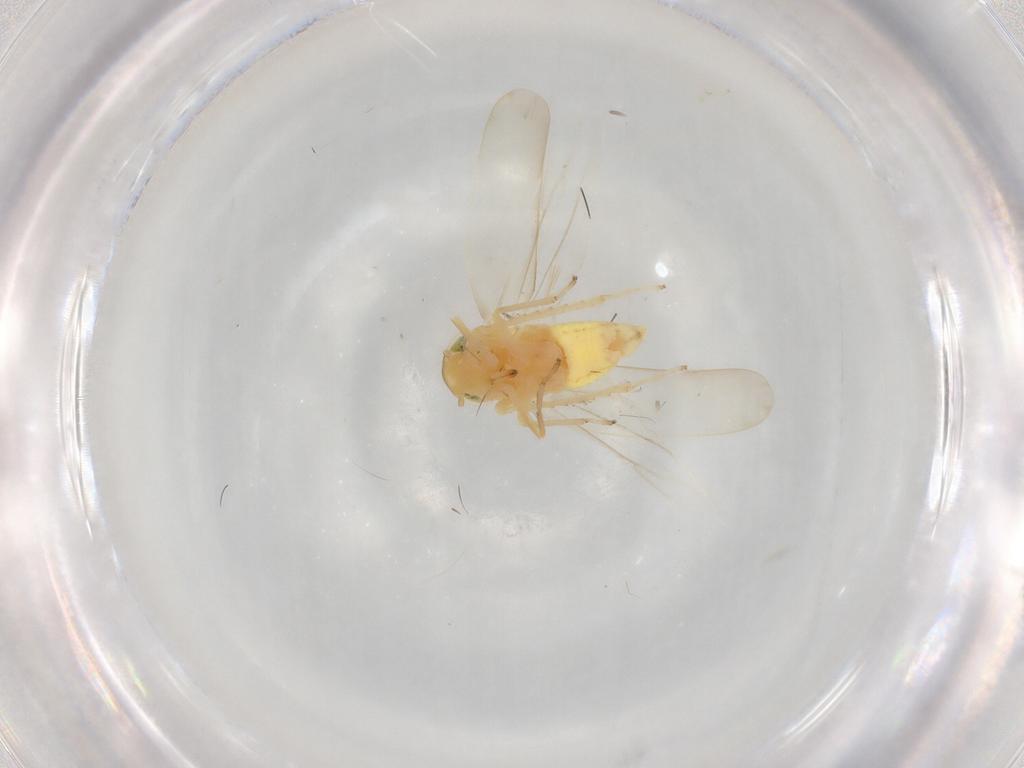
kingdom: Animalia
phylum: Arthropoda
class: Insecta
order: Hemiptera
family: Cicadellidae
